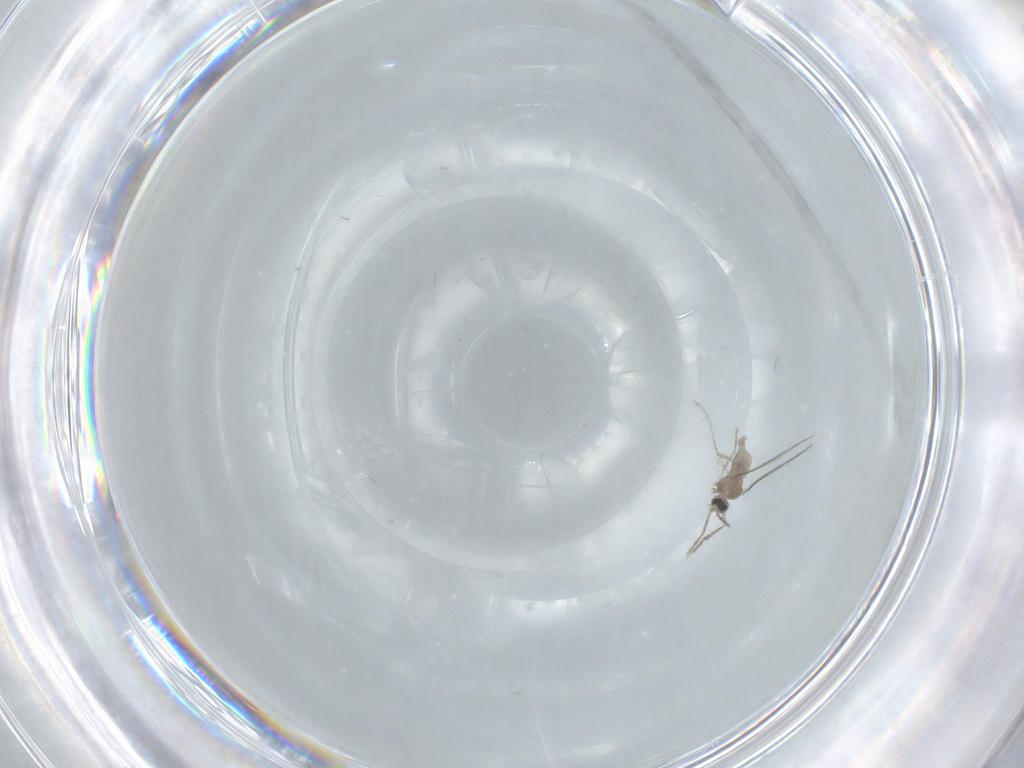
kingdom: Animalia
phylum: Arthropoda
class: Insecta
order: Diptera
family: Cecidomyiidae
